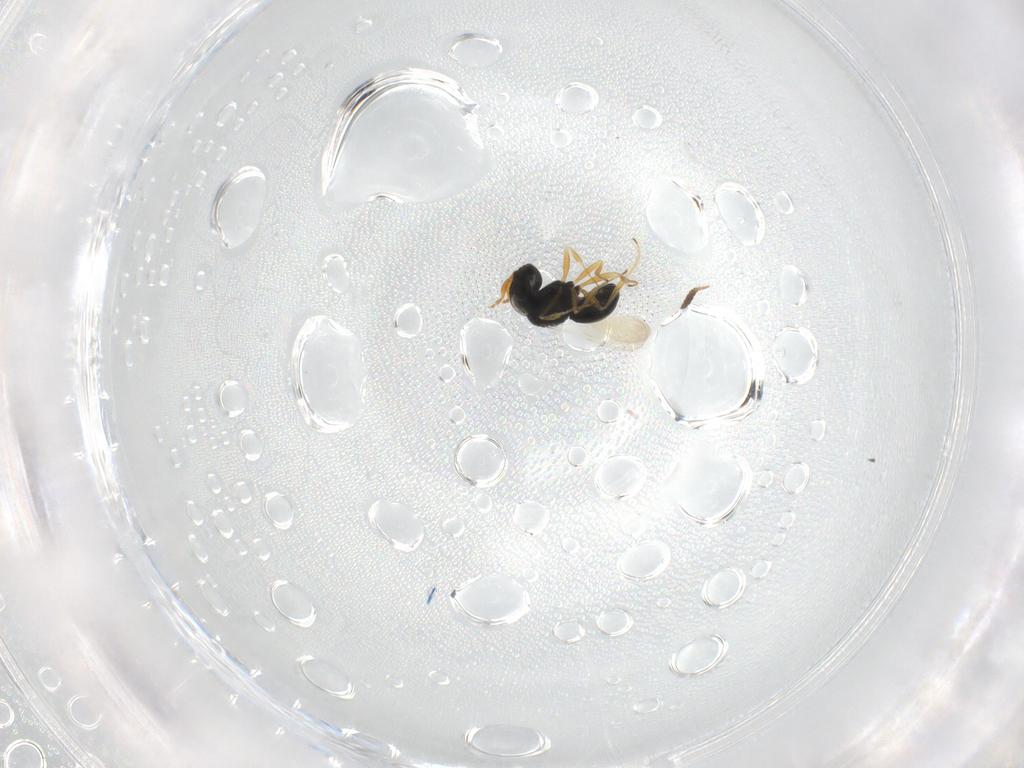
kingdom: Animalia
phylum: Arthropoda
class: Insecta
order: Hymenoptera
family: Scelionidae
